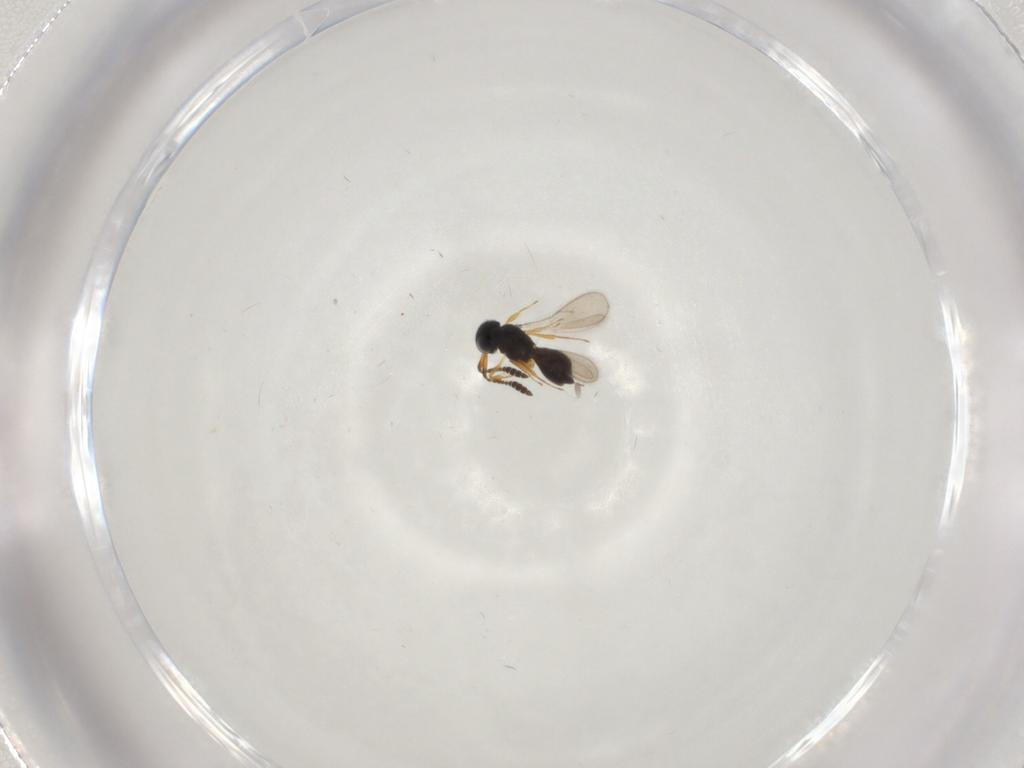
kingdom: Animalia
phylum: Arthropoda
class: Insecta
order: Hymenoptera
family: Scelionidae
